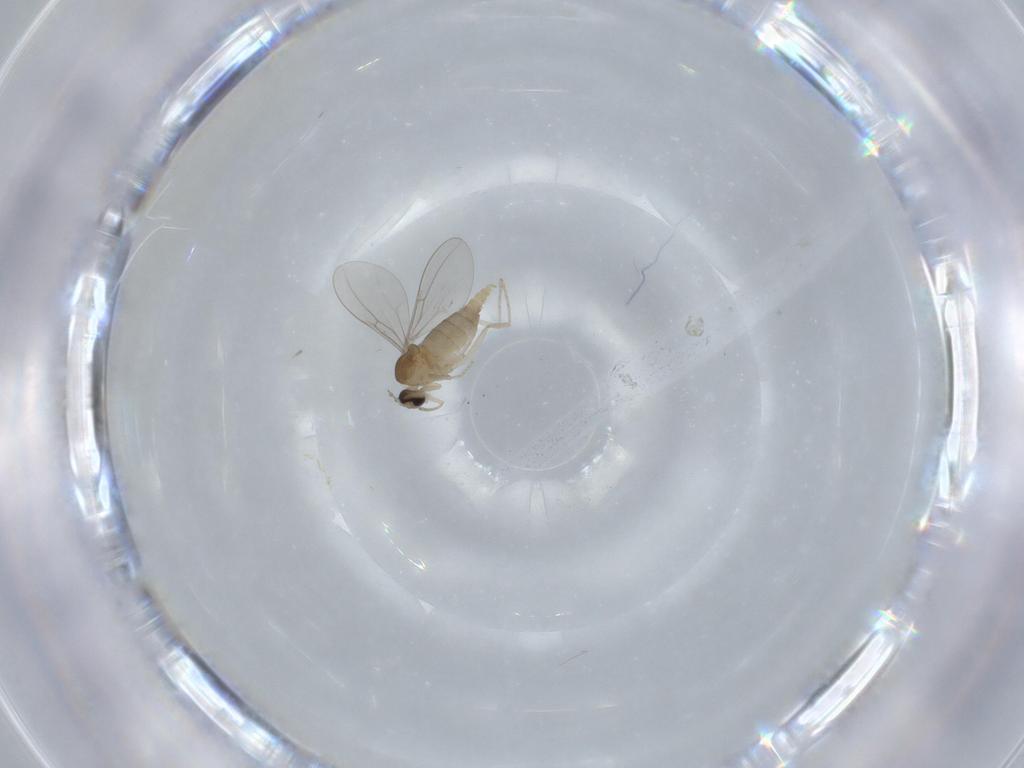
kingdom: Animalia
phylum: Arthropoda
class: Insecta
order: Diptera
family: Cecidomyiidae
